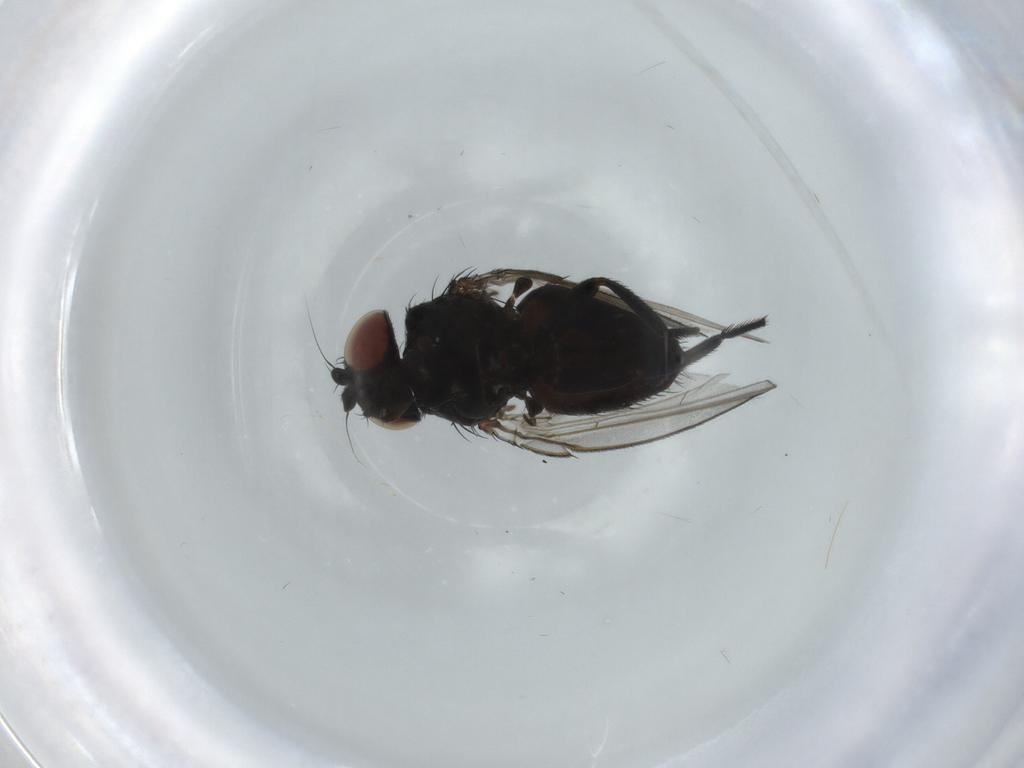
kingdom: Animalia
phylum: Arthropoda
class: Insecta
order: Diptera
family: Milichiidae
